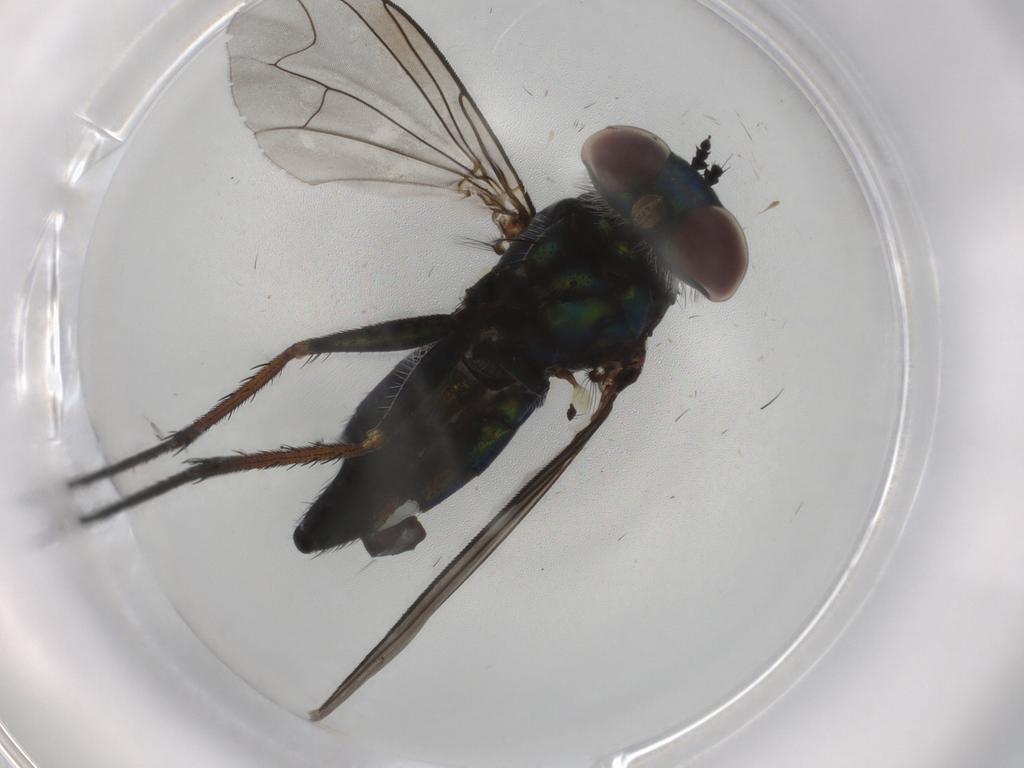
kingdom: Animalia
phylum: Arthropoda
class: Insecta
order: Diptera
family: Dolichopodidae
